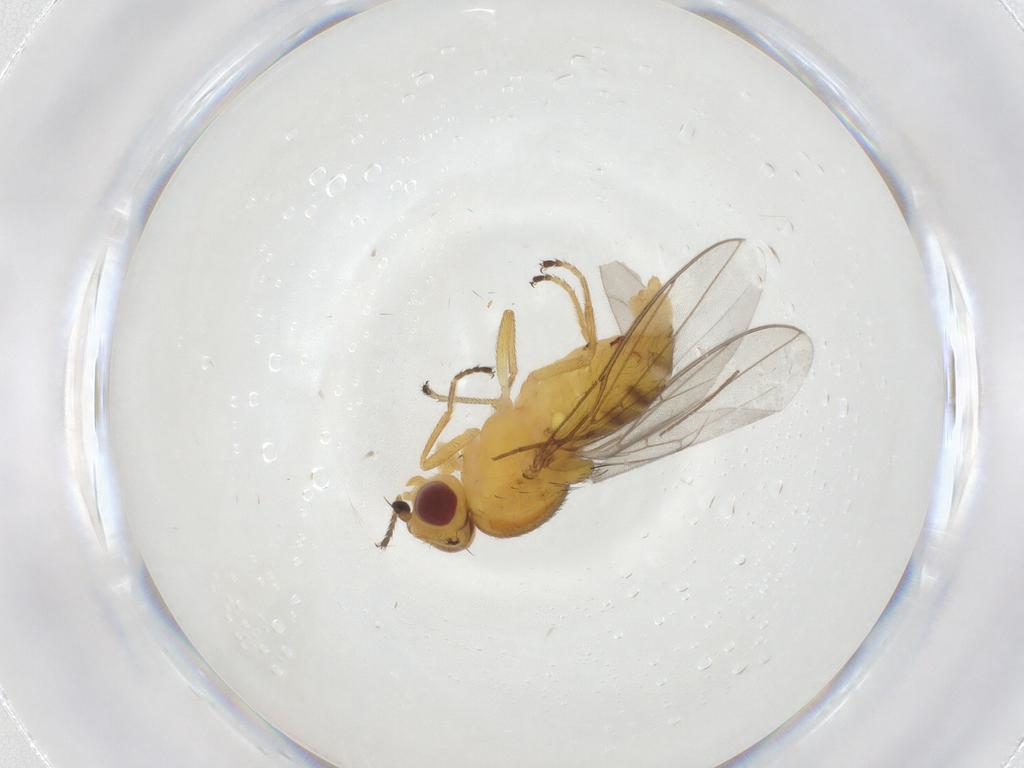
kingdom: Animalia
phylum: Arthropoda
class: Insecta
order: Diptera
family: Chloropidae
